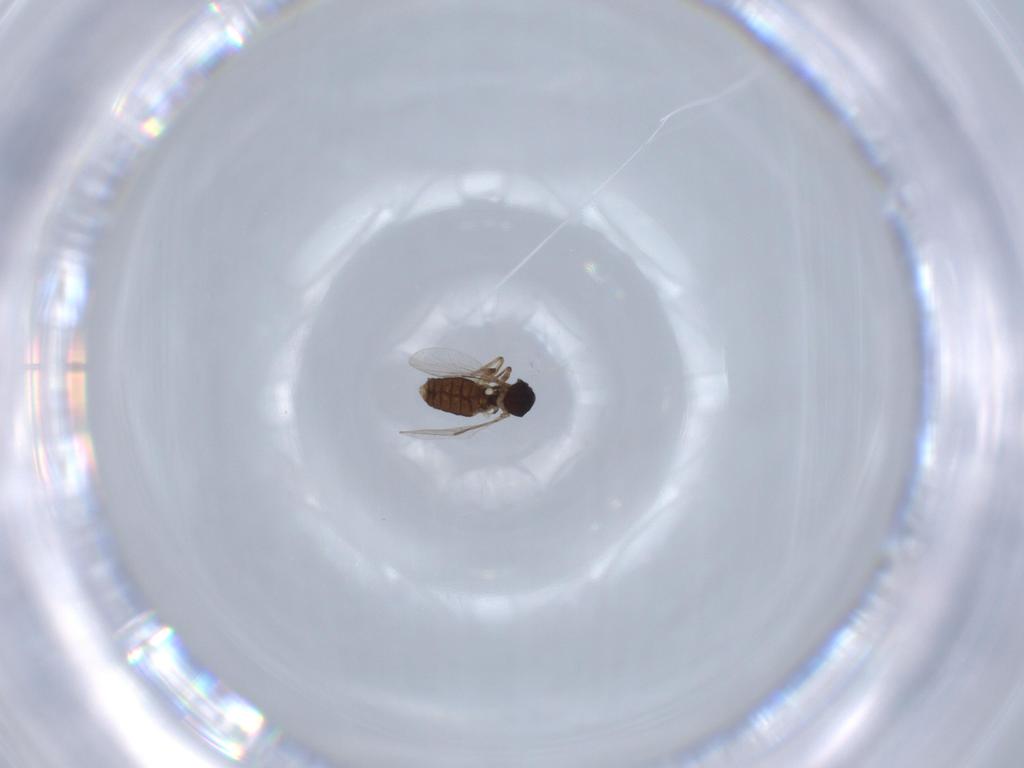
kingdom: Animalia
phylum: Arthropoda
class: Insecta
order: Diptera
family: Ceratopogonidae
